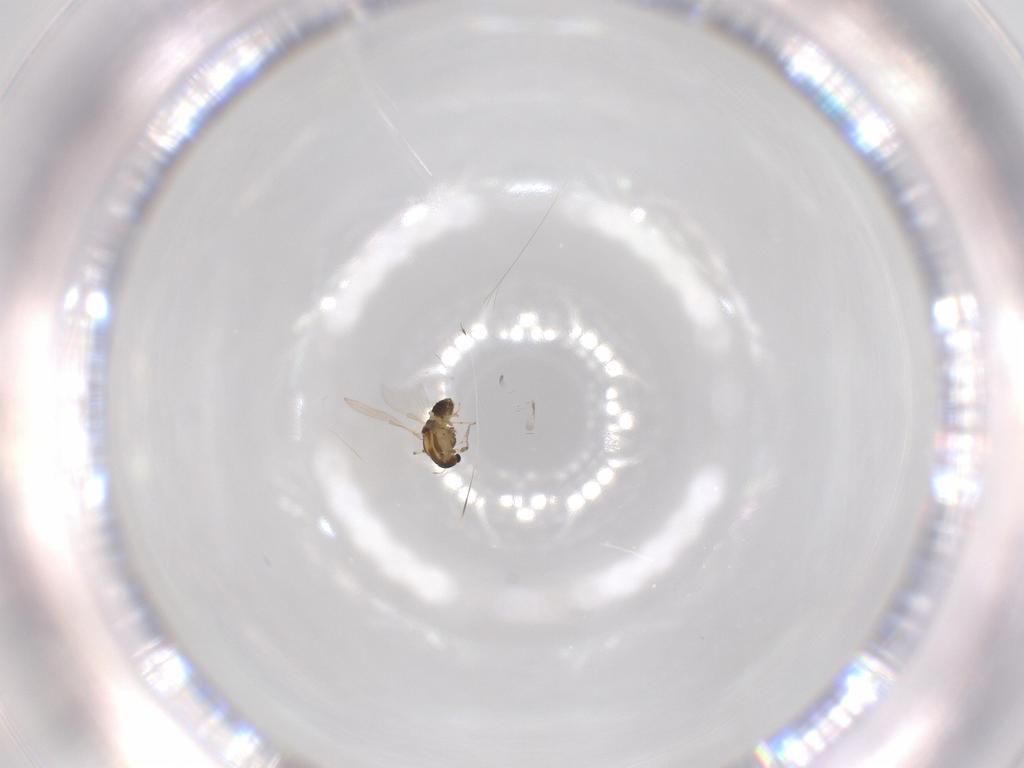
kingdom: Animalia
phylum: Arthropoda
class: Insecta
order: Diptera
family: Chironomidae
